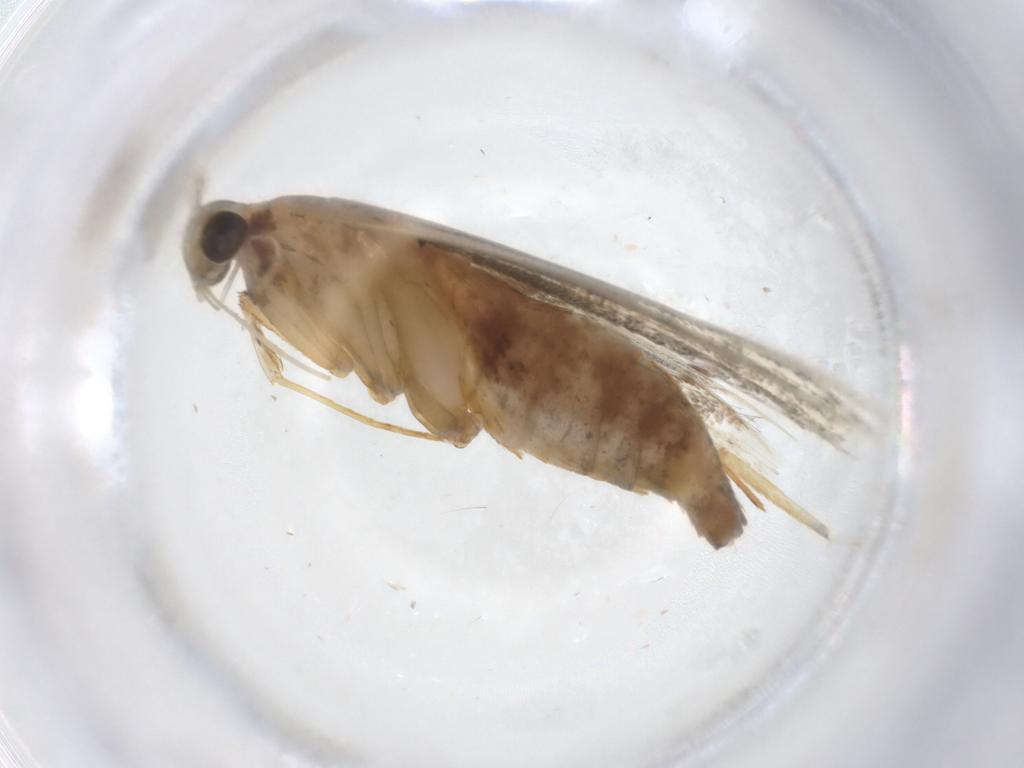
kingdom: Animalia
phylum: Arthropoda
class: Insecta
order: Lepidoptera
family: Lecithoceridae
